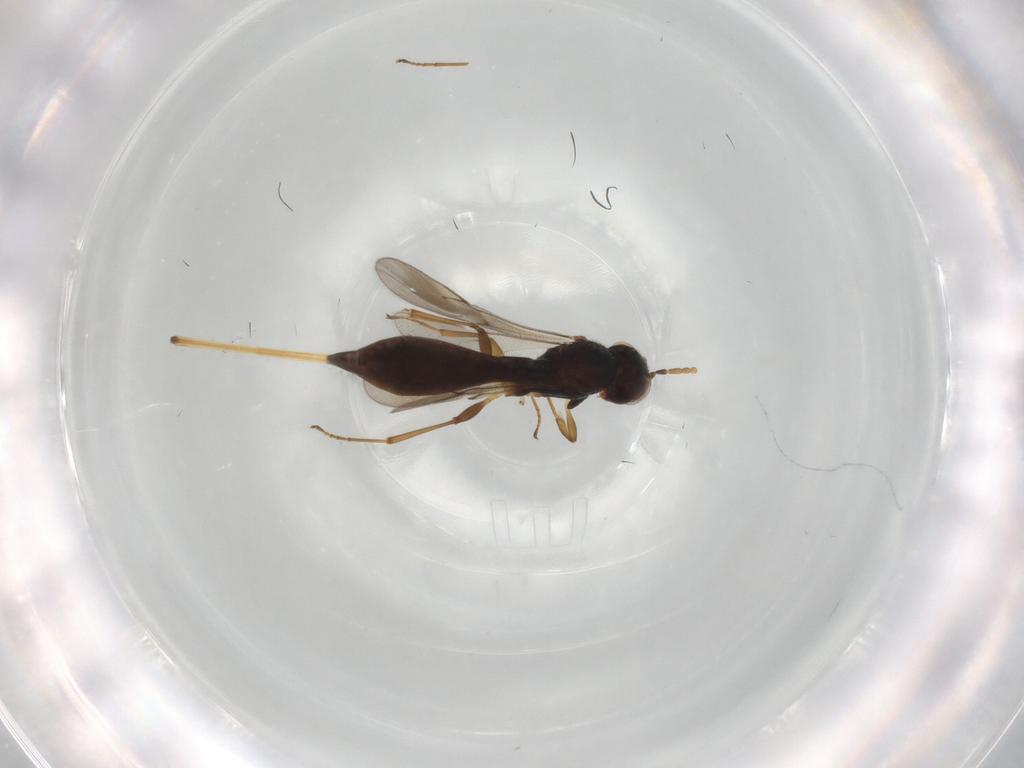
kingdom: Animalia
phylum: Arthropoda
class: Insecta
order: Hymenoptera
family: Scelionidae
